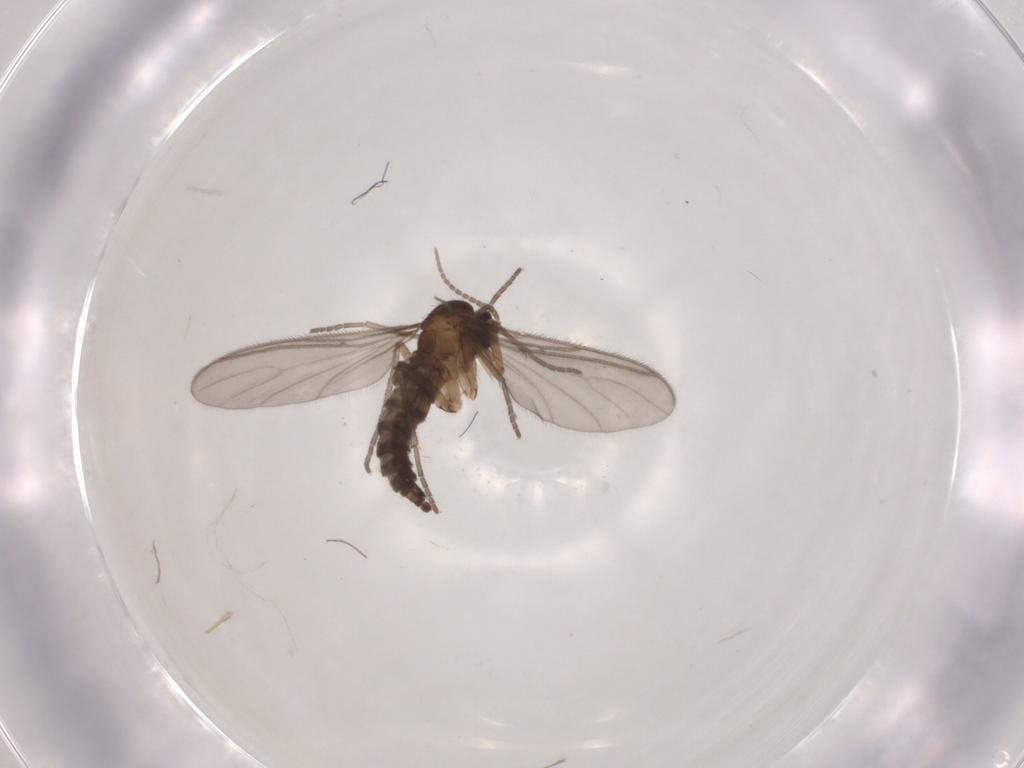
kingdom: Animalia
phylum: Arthropoda
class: Insecta
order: Diptera
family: Sciaridae
